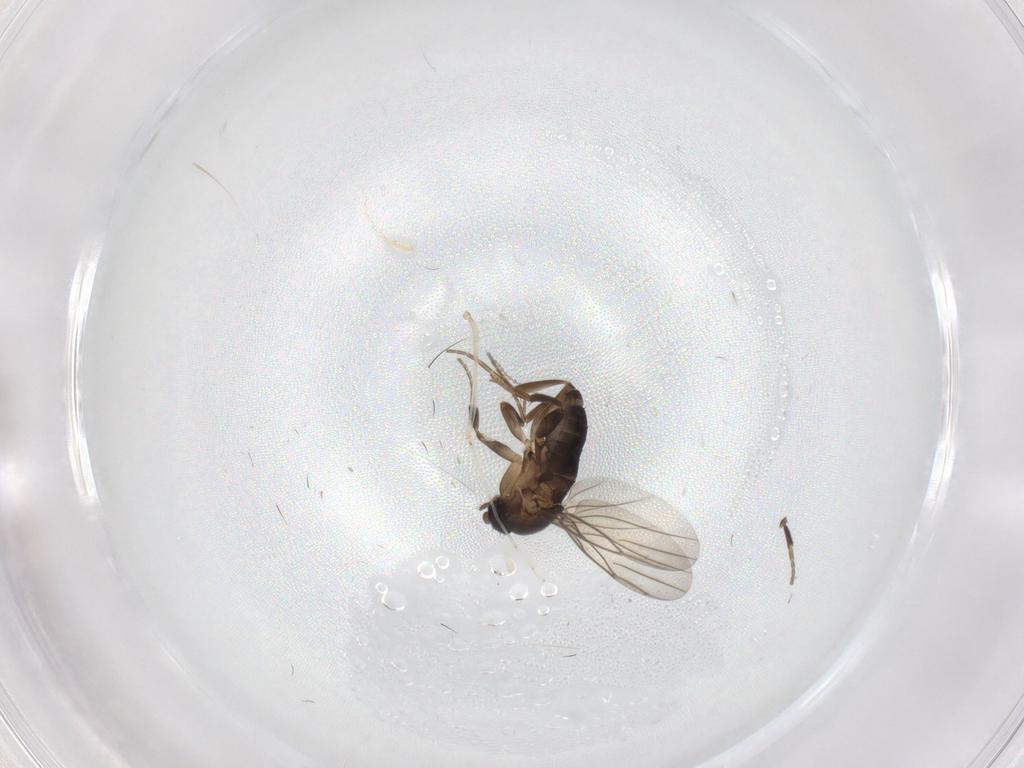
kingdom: Animalia
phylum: Arthropoda
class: Insecta
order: Diptera
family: Cecidomyiidae
